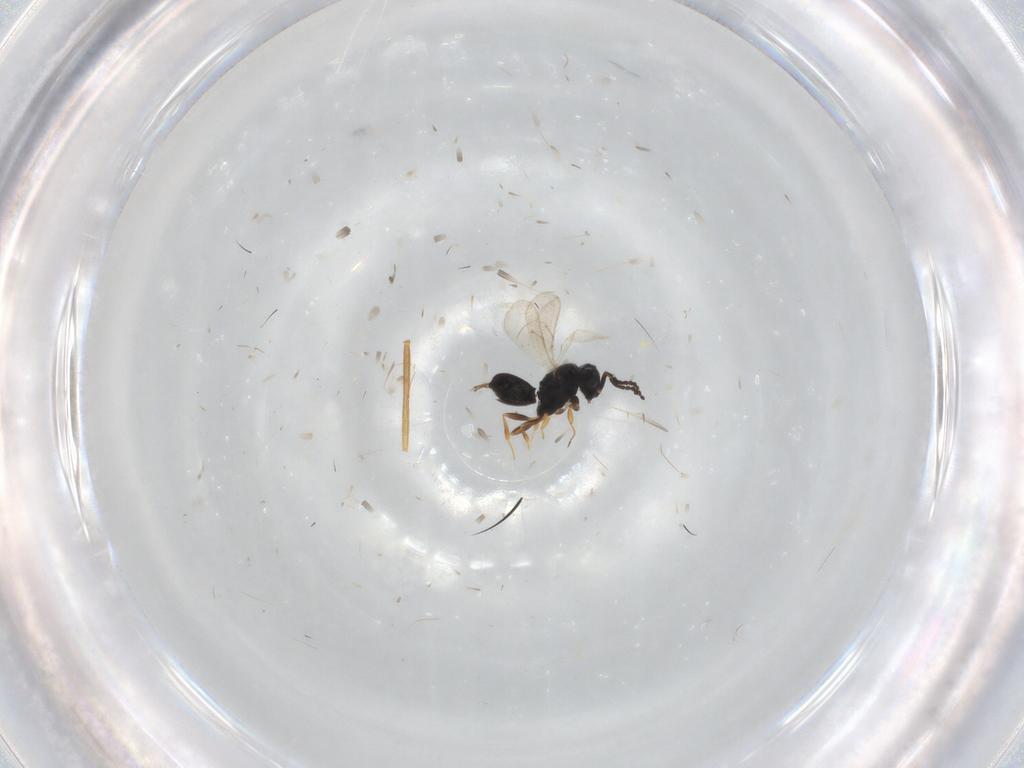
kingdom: Animalia
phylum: Arthropoda
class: Insecta
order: Hymenoptera
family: Scelionidae
